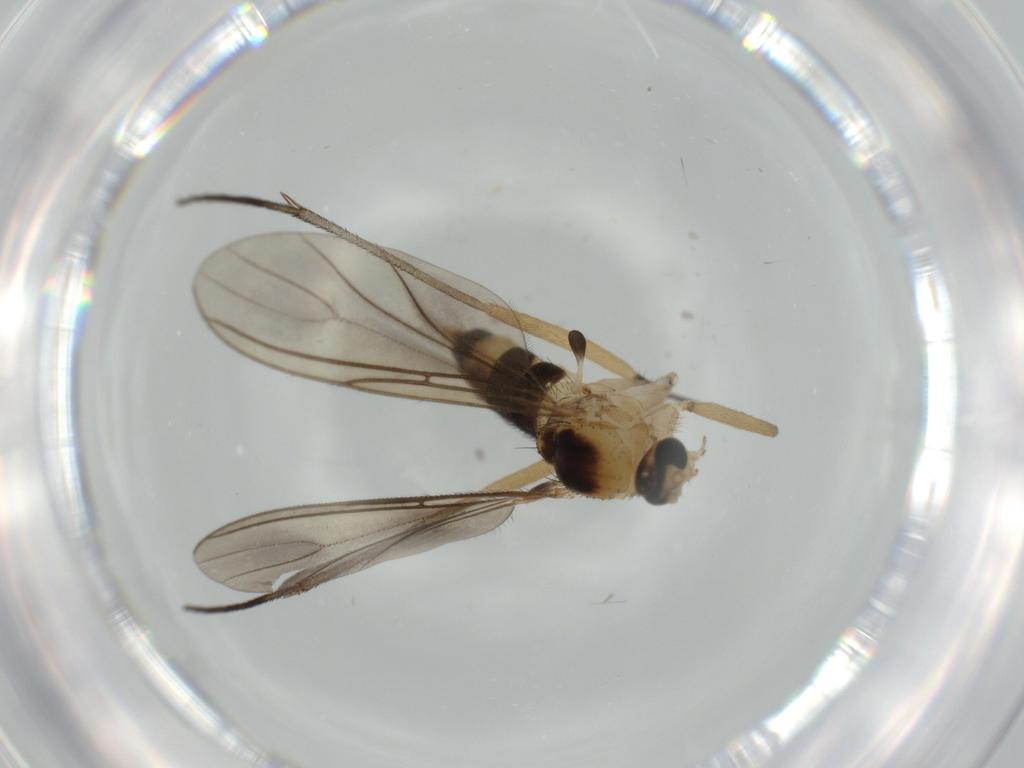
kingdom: Animalia
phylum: Arthropoda
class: Insecta
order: Diptera
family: Sciaridae
